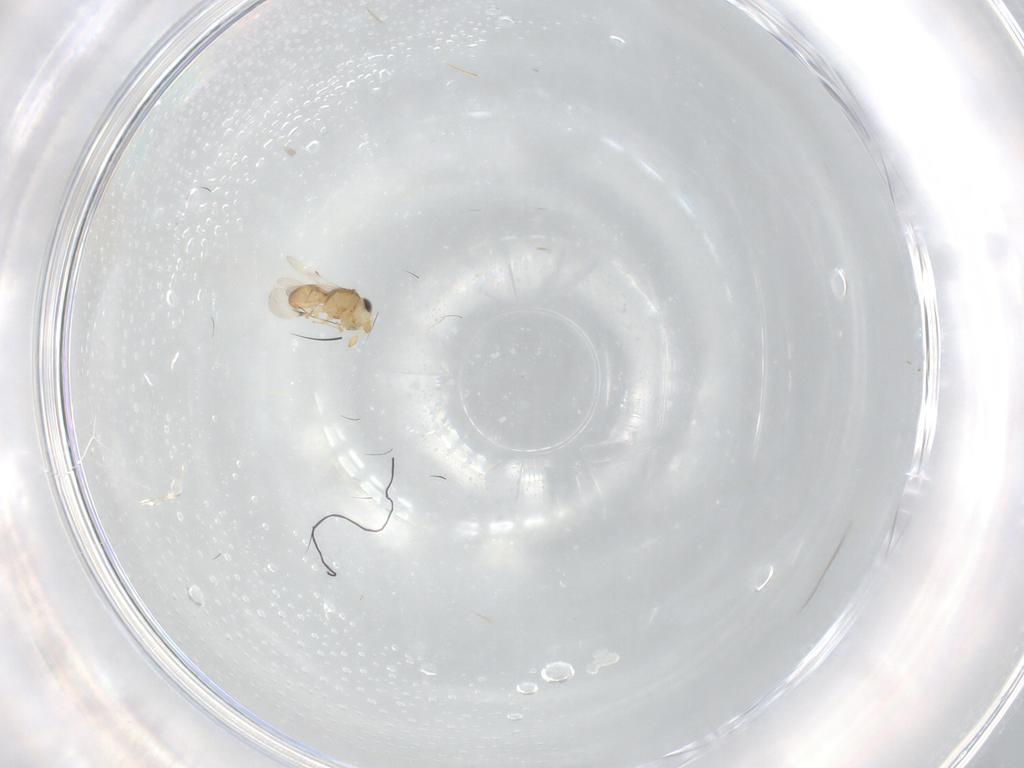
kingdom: Animalia
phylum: Arthropoda
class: Insecta
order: Hymenoptera
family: Scelionidae
